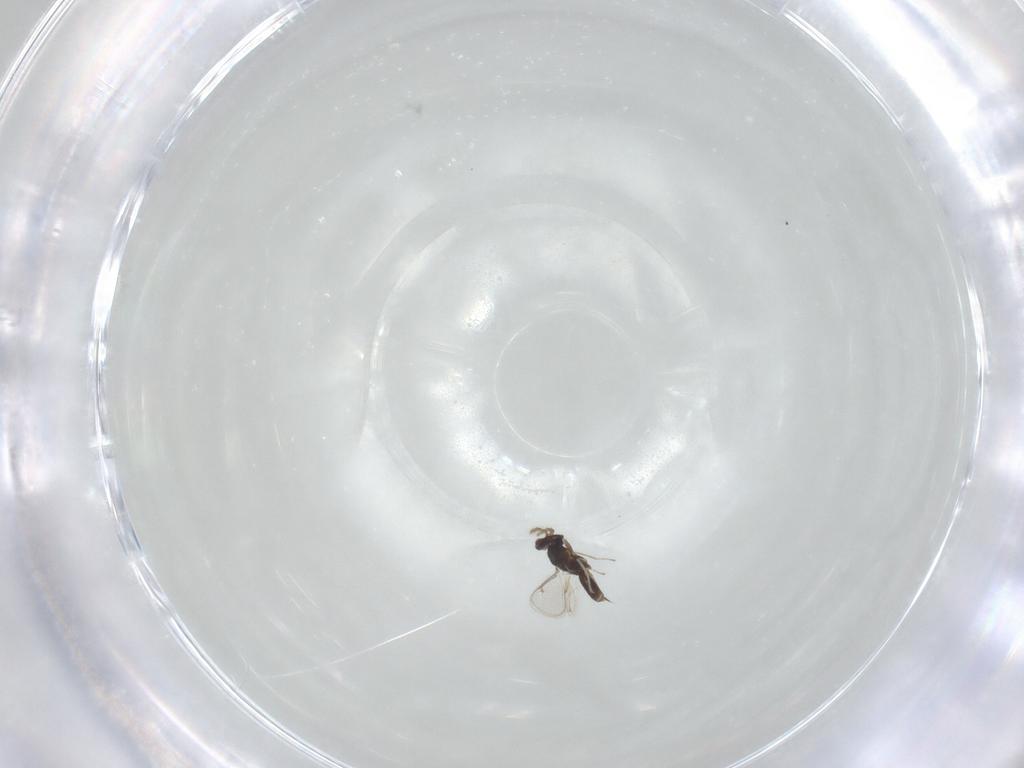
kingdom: Animalia
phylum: Arthropoda
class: Insecta
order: Hymenoptera
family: Eulophidae
